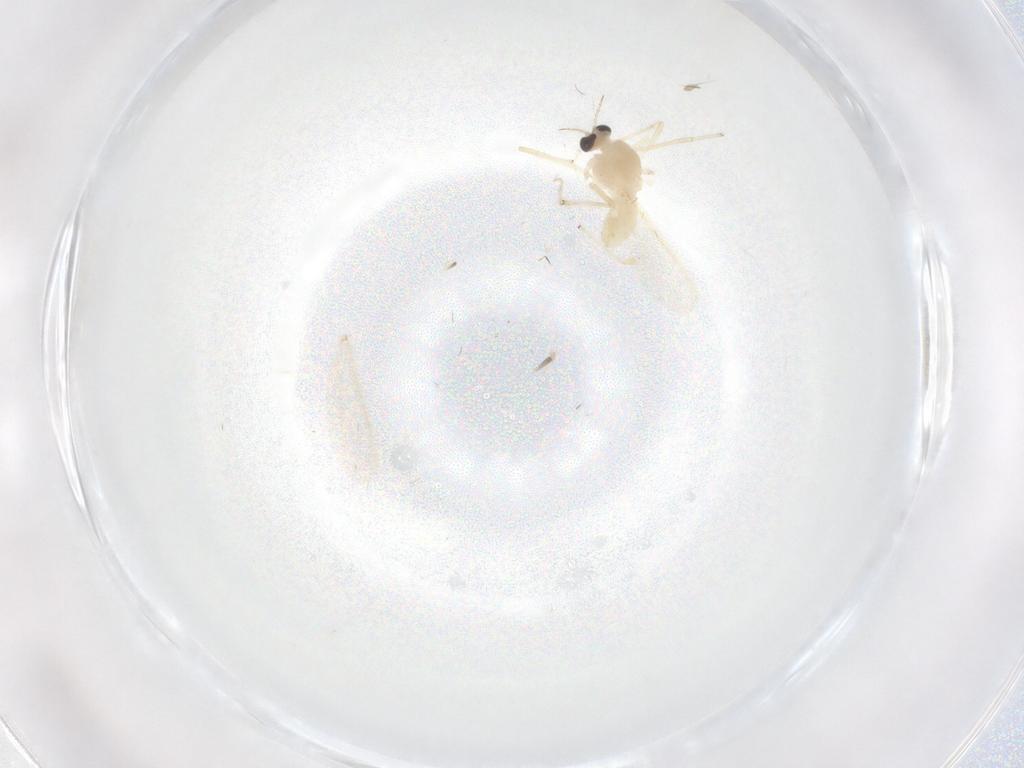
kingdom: Animalia
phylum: Arthropoda
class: Insecta
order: Diptera
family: Chironomidae
